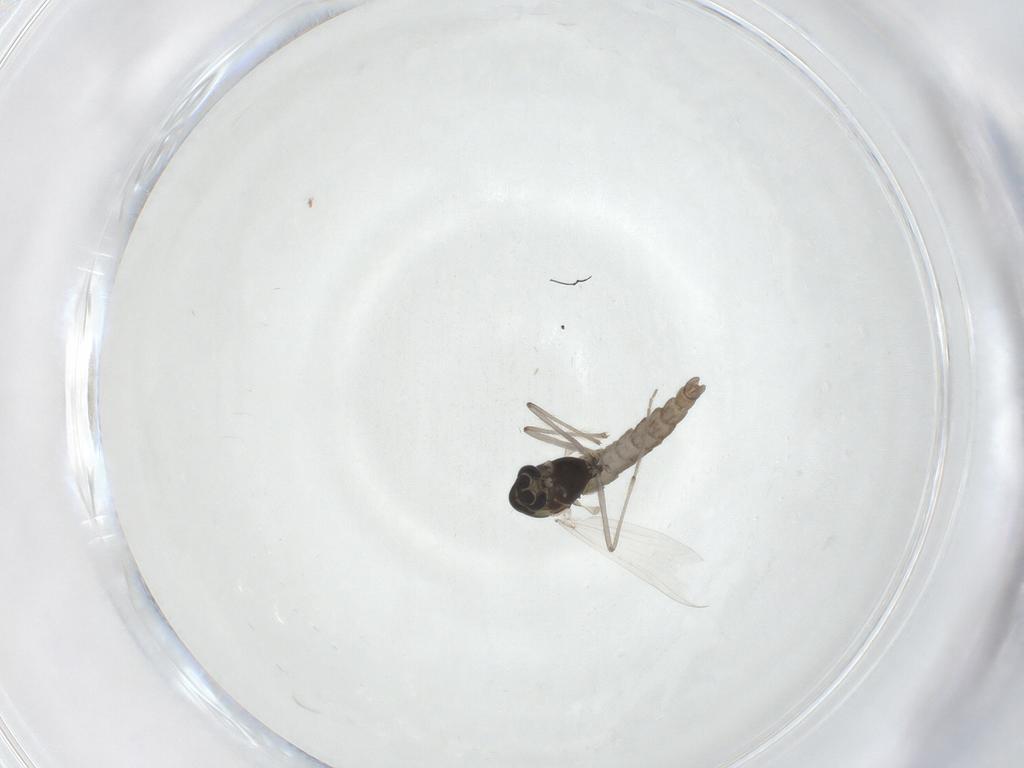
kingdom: Animalia
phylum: Arthropoda
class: Insecta
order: Diptera
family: Chironomidae
